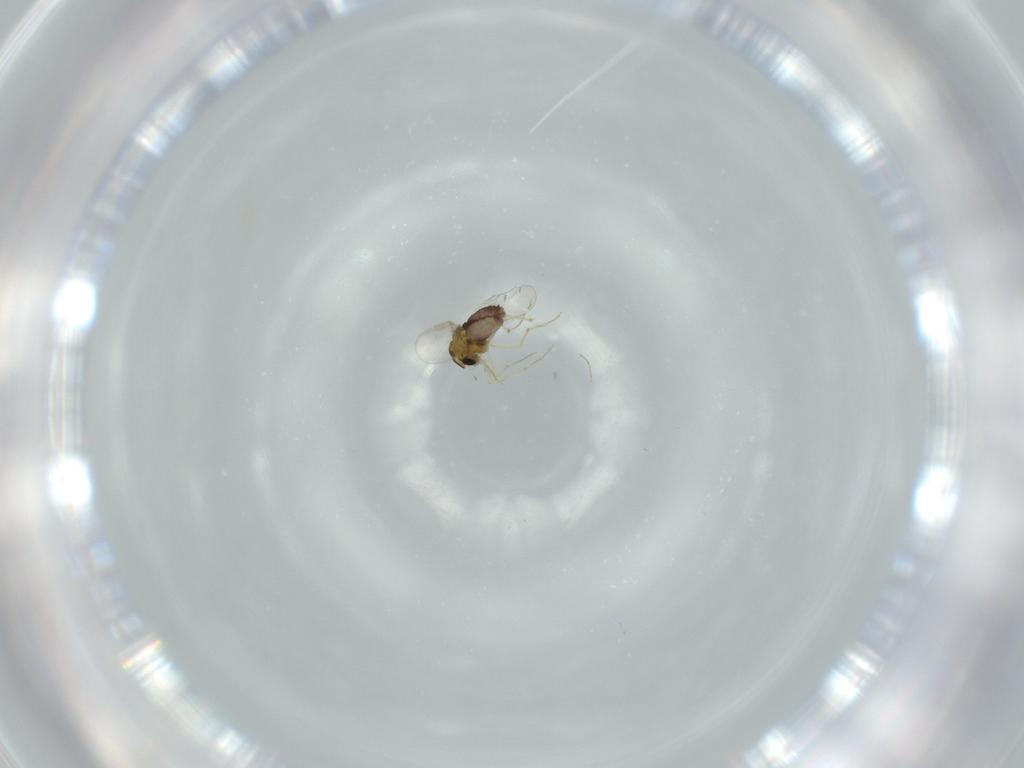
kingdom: Animalia
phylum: Arthropoda
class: Insecta
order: Diptera
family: Chironomidae
